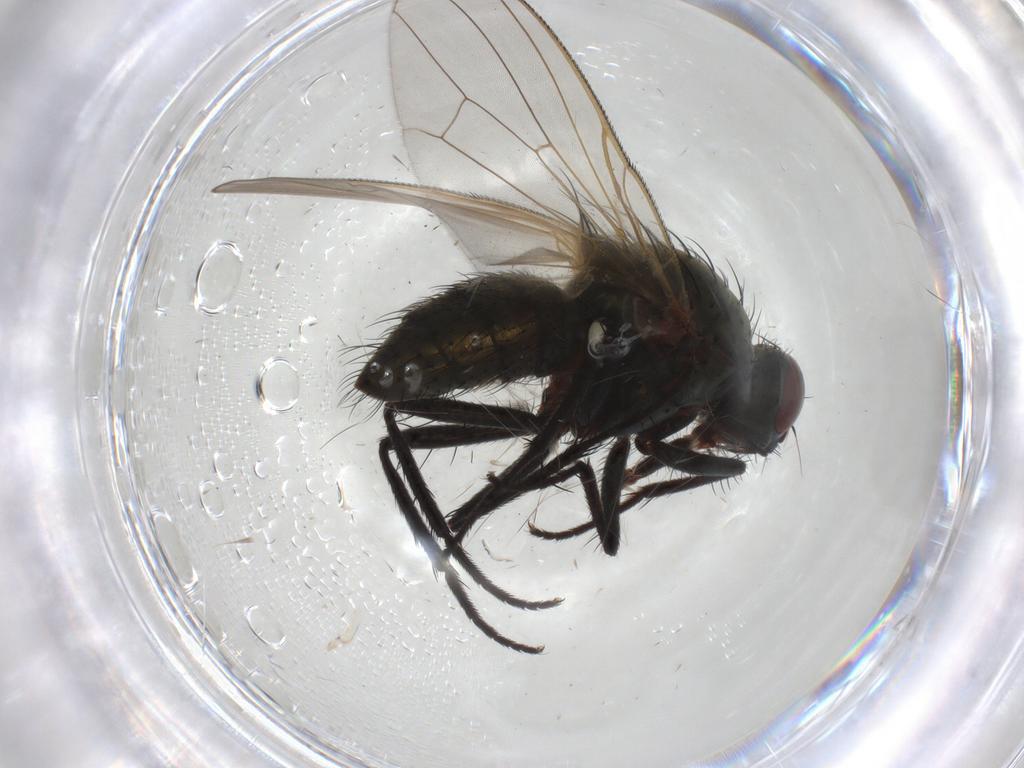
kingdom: Animalia
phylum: Arthropoda
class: Insecta
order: Diptera
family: Anthomyiidae
